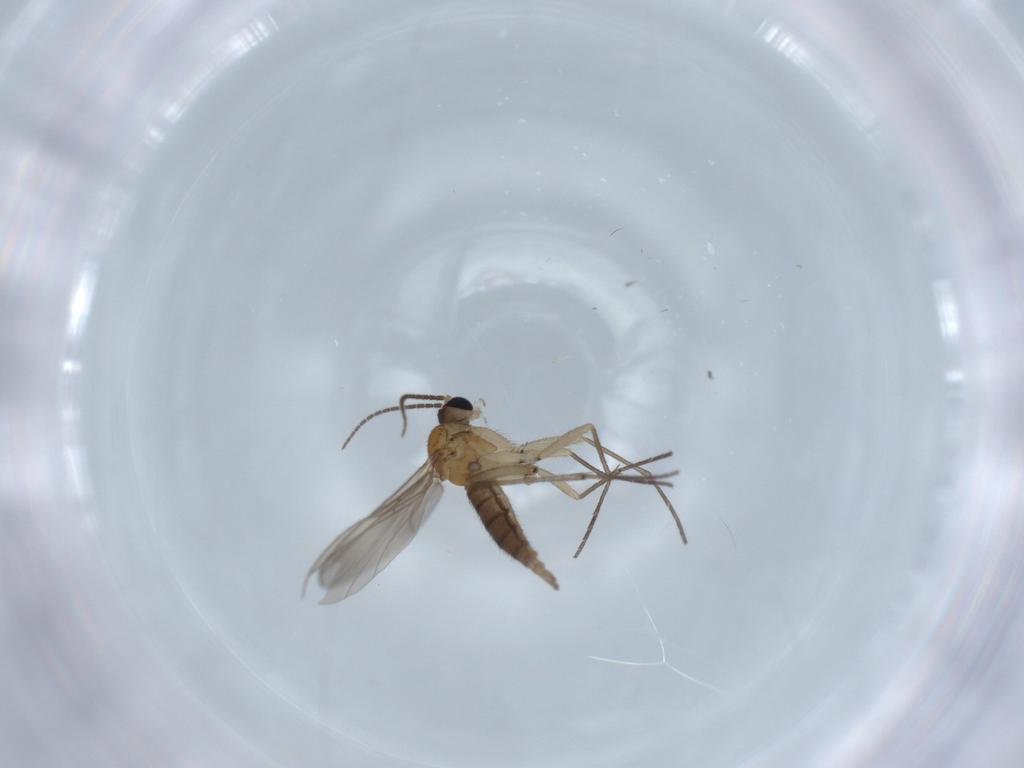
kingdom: Animalia
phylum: Arthropoda
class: Insecta
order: Diptera
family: Sciaridae
